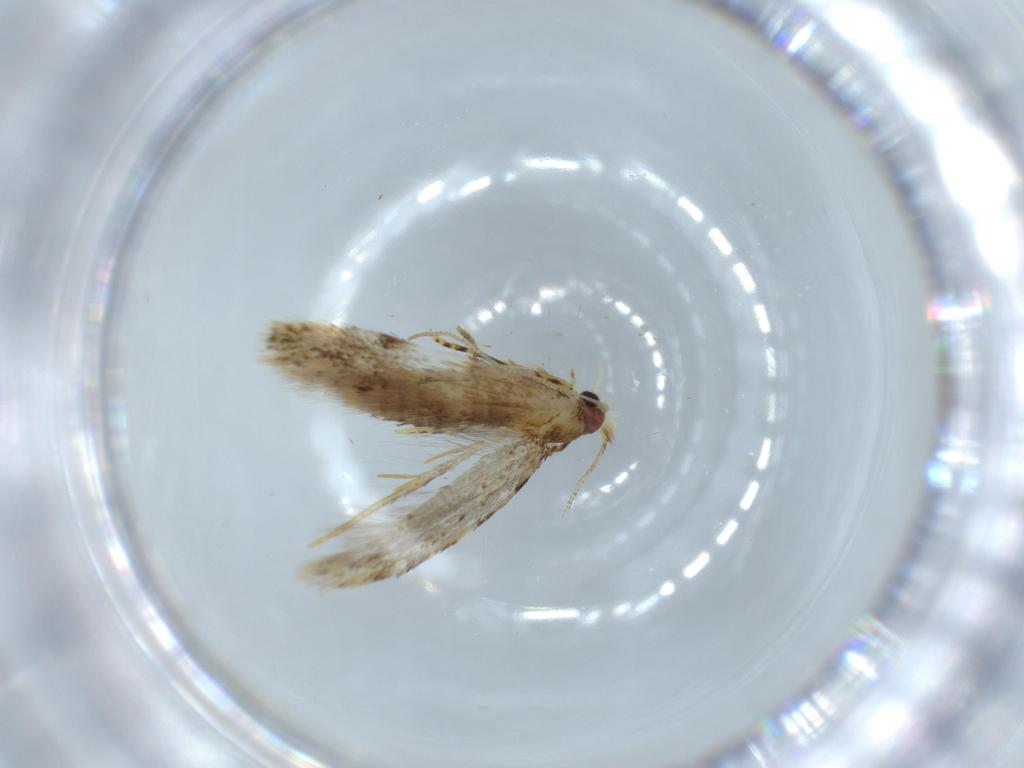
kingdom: Animalia
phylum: Arthropoda
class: Insecta
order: Lepidoptera
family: Tineidae
